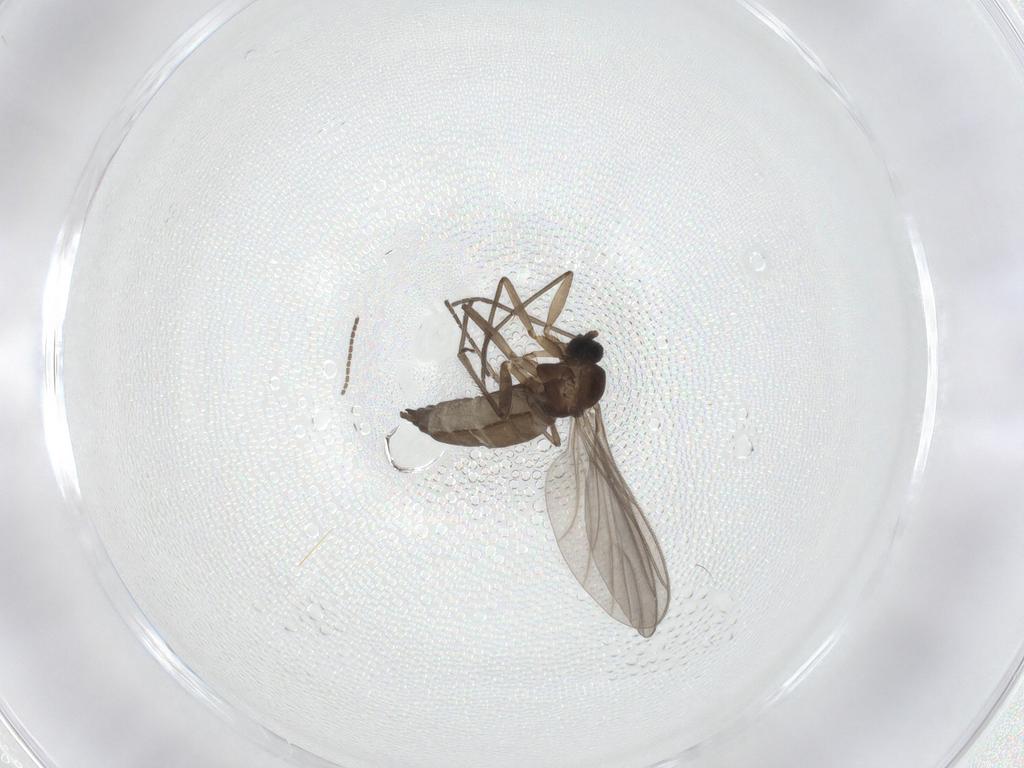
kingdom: Animalia
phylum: Arthropoda
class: Insecta
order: Diptera
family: Sciaridae
